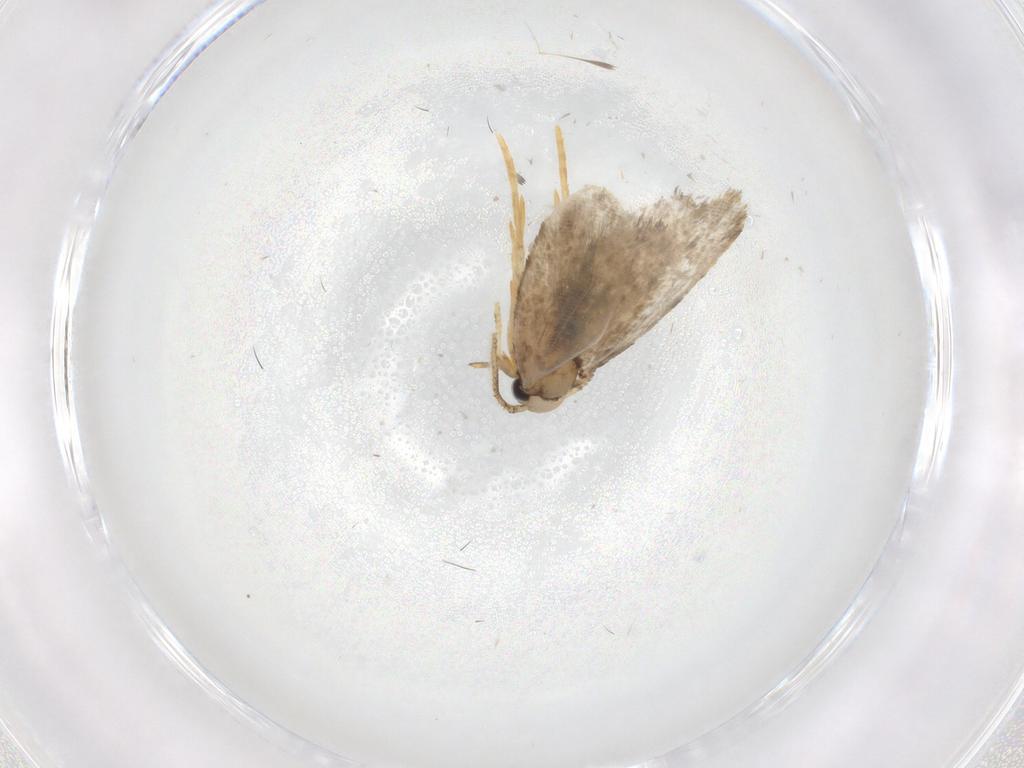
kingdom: Animalia
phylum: Arthropoda
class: Insecta
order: Lepidoptera
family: Psychidae
